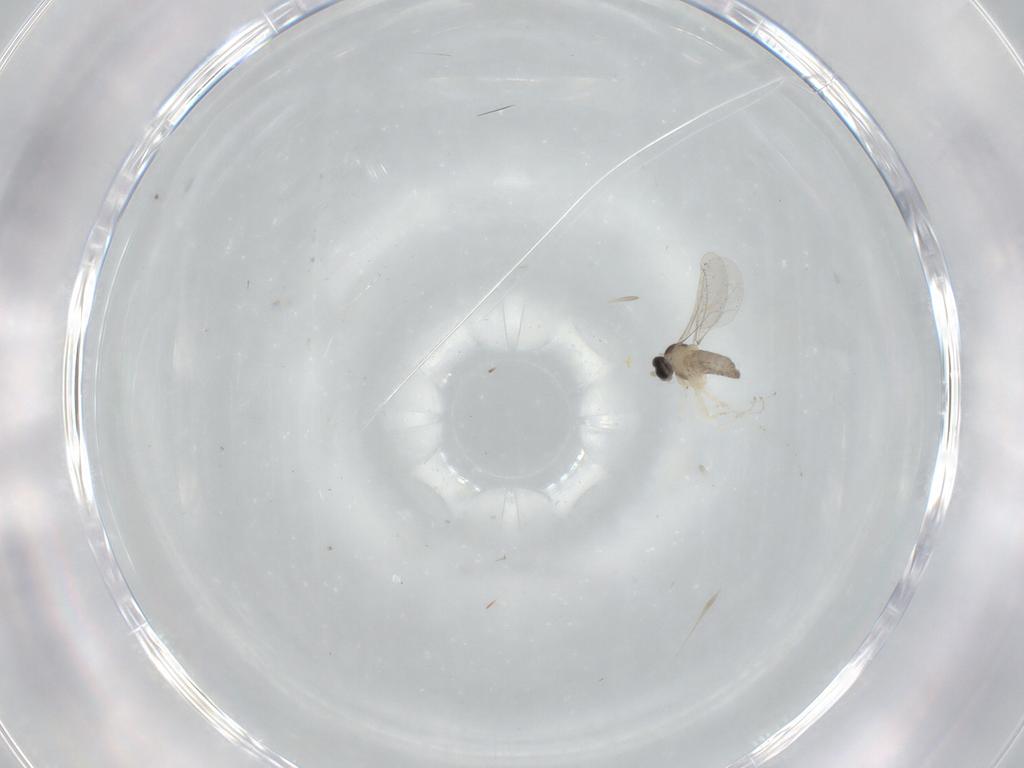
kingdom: Animalia
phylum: Arthropoda
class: Insecta
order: Diptera
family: Cecidomyiidae
